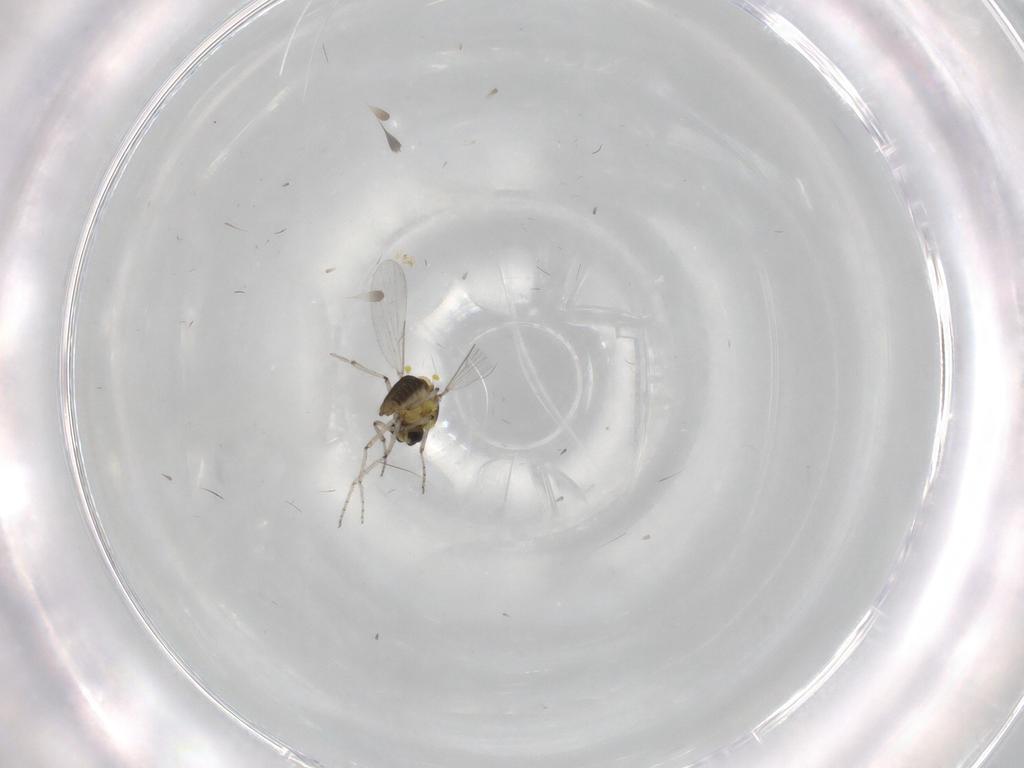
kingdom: Animalia
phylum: Arthropoda
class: Insecta
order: Diptera
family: Ceratopogonidae
